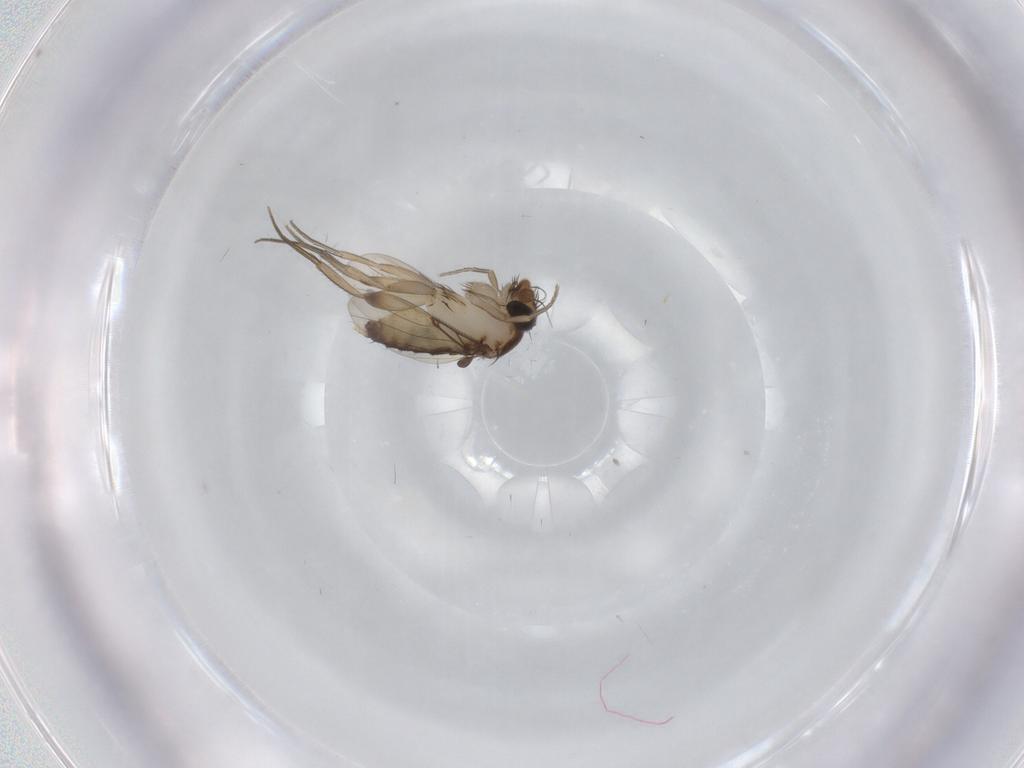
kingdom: Animalia
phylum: Arthropoda
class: Insecta
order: Diptera
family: Phoridae
